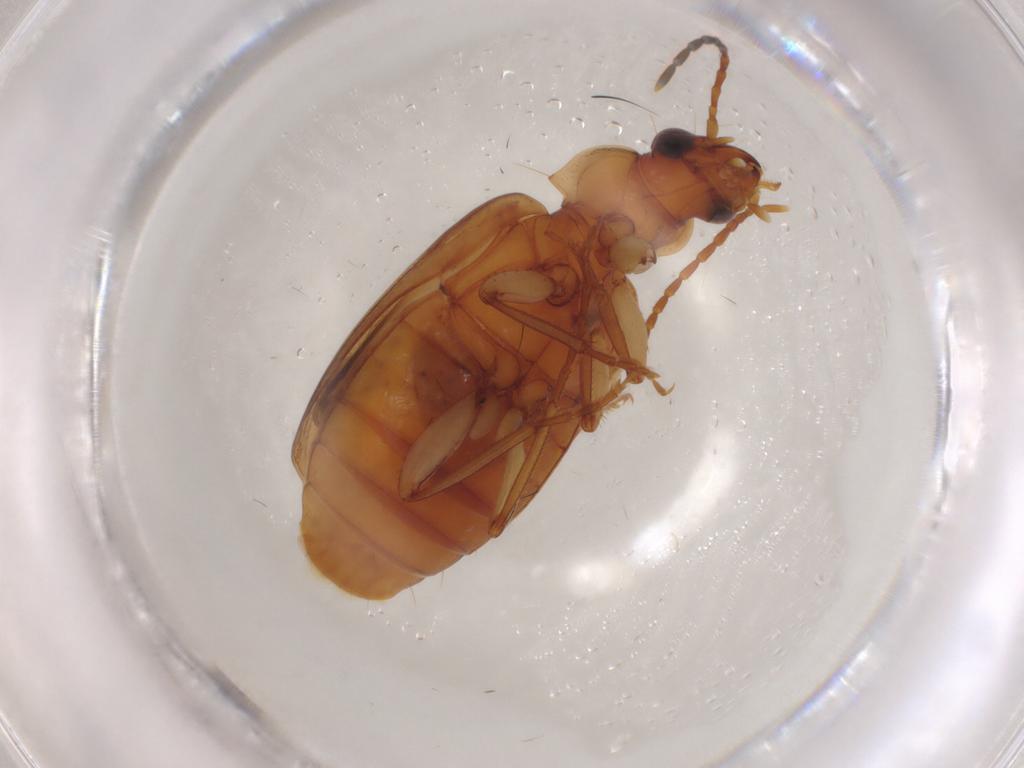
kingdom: Animalia
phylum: Arthropoda
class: Insecta
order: Coleoptera
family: Carabidae
